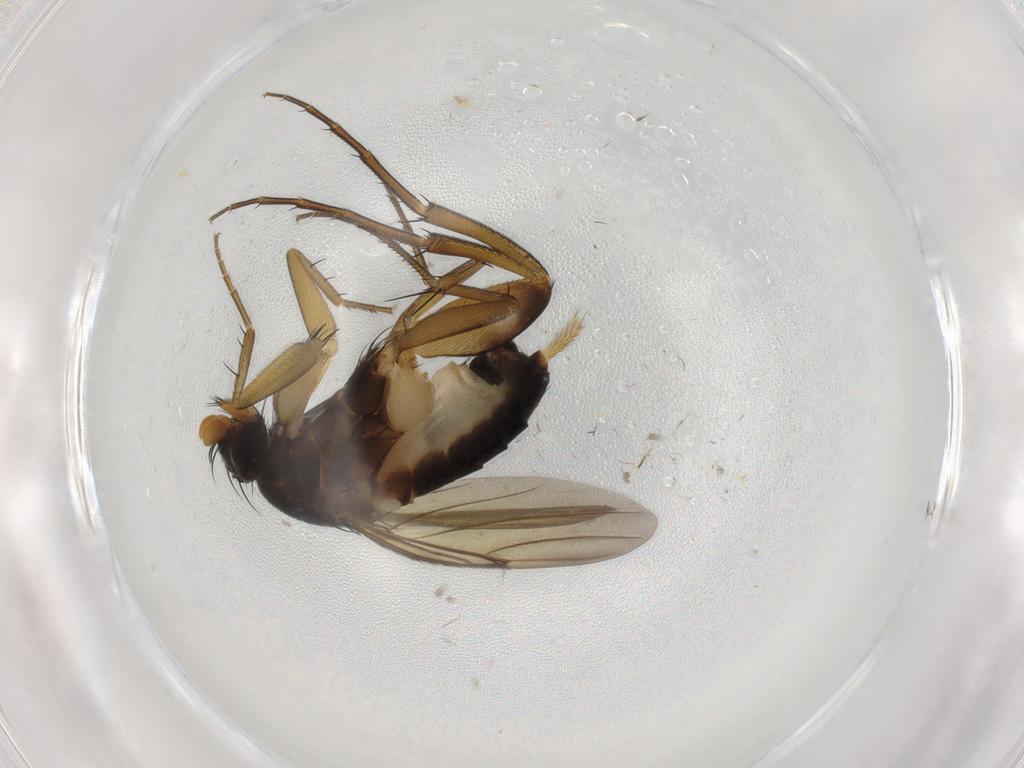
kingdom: Animalia
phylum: Arthropoda
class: Insecta
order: Diptera
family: Phoridae
